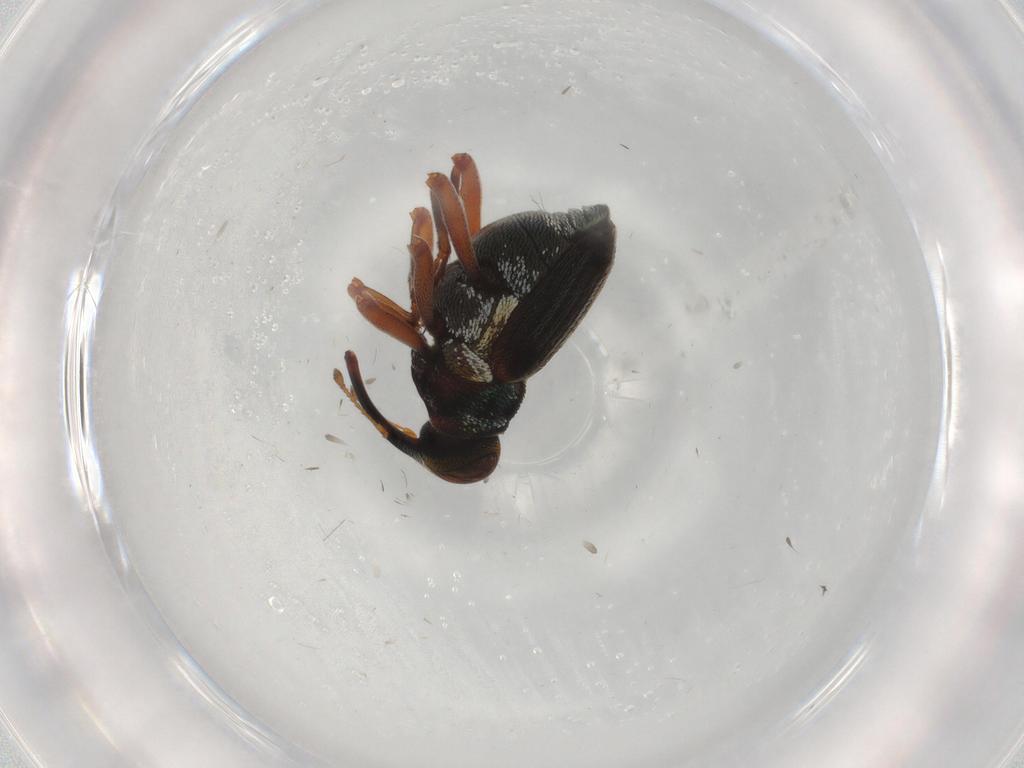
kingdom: Animalia
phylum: Arthropoda
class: Insecta
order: Coleoptera
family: Curculionidae
